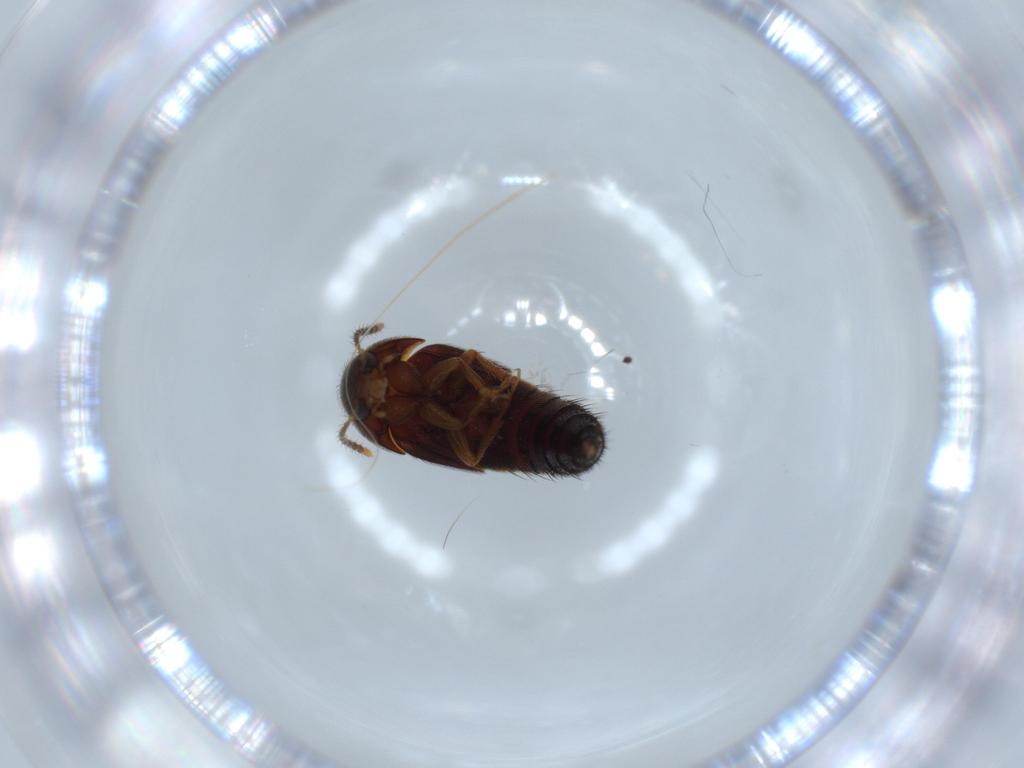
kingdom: Animalia
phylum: Arthropoda
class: Insecta
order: Coleoptera
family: Staphylinidae
